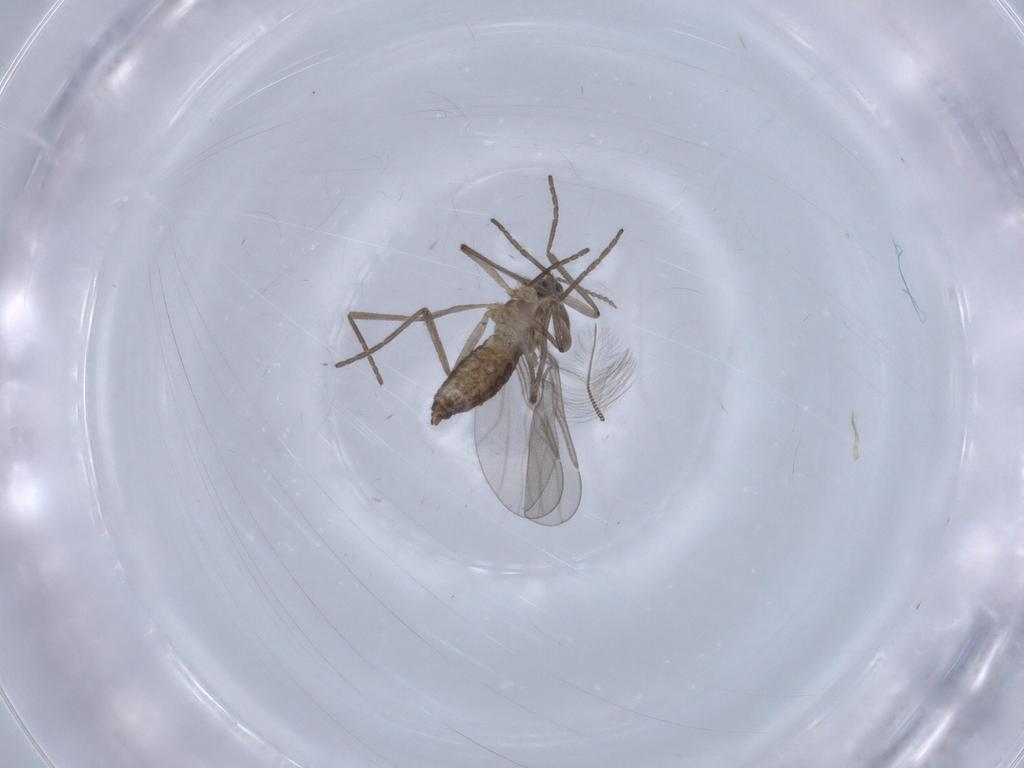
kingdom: Animalia
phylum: Arthropoda
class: Insecta
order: Diptera
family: Chironomidae
